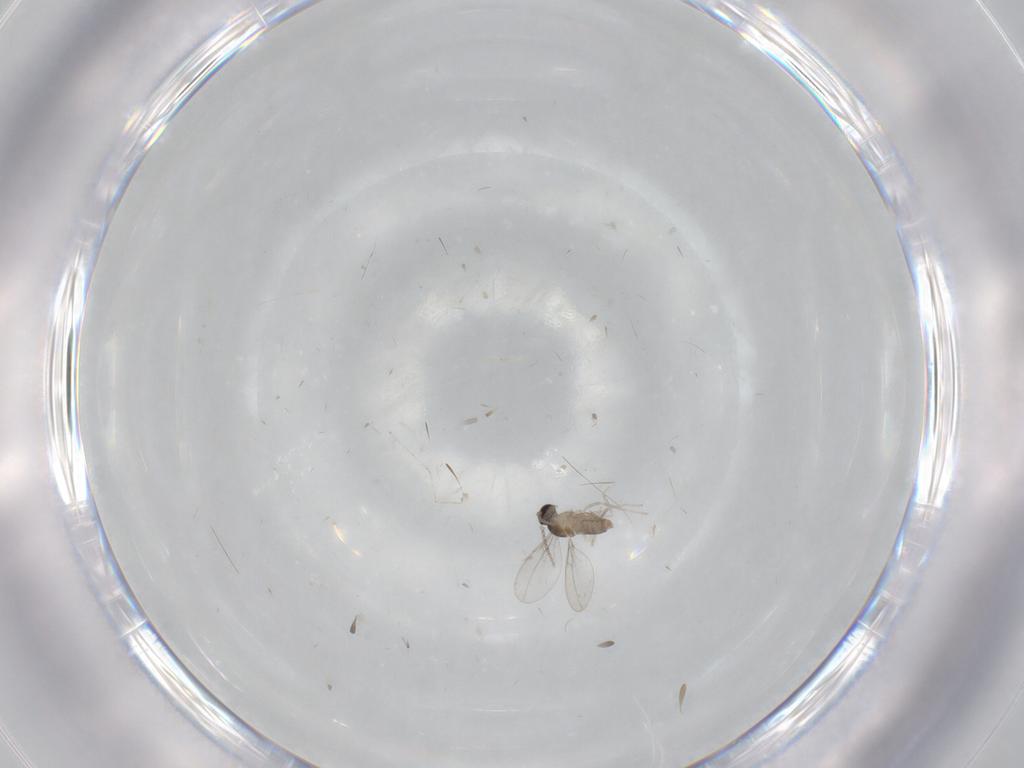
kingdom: Animalia
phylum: Arthropoda
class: Insecta
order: Diptera
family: Cecidomyiidae
